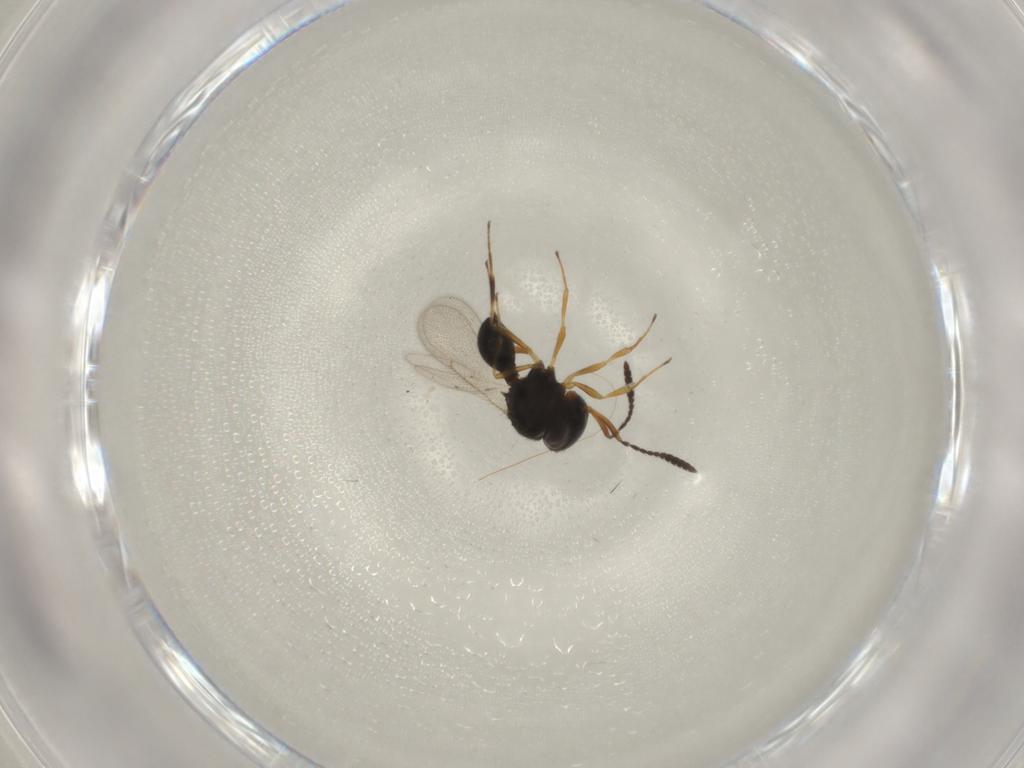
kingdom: Animalia
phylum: Arthropoda
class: Insecta
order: Hymenoptera
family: Scelionidae
